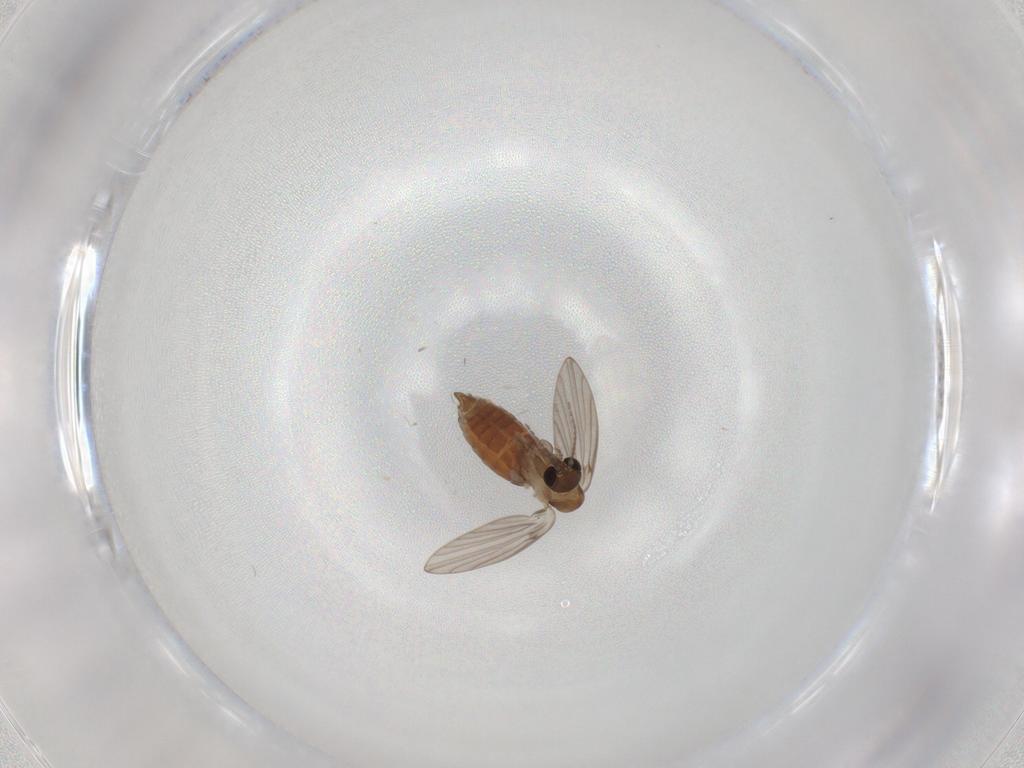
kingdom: Animalia
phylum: Arthropoda
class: Insecta
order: Diptera
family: Psychodidae
